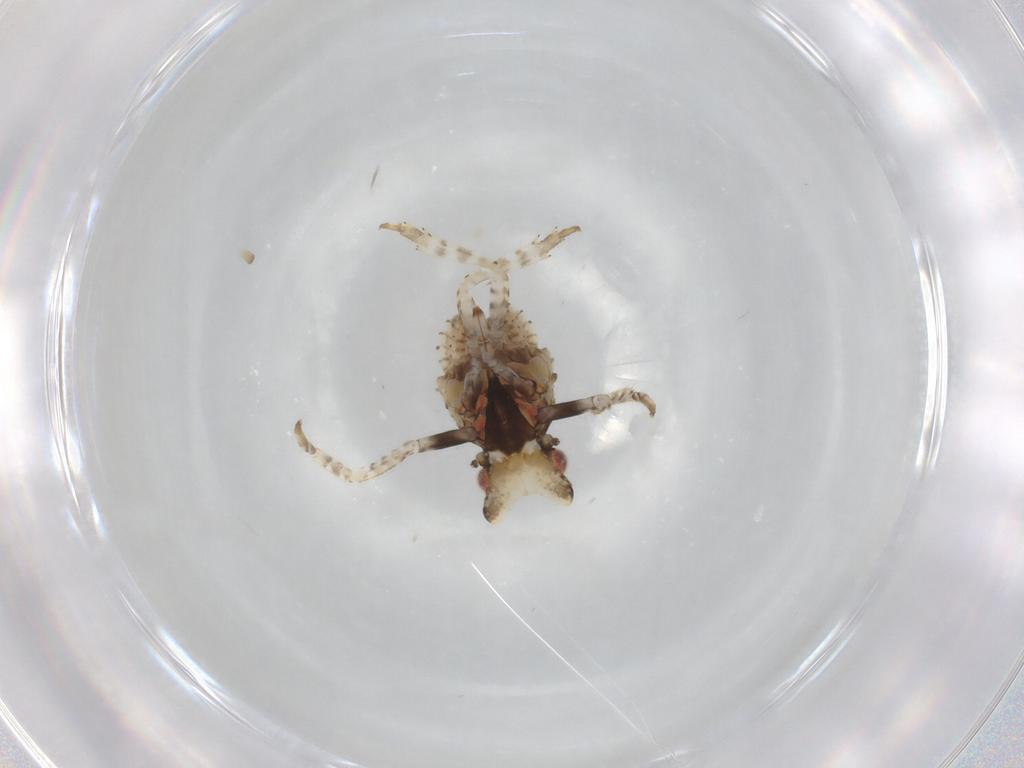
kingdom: Animalia
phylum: Arthropoda
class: Insecta
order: Hemiptera
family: Fulgoridae
